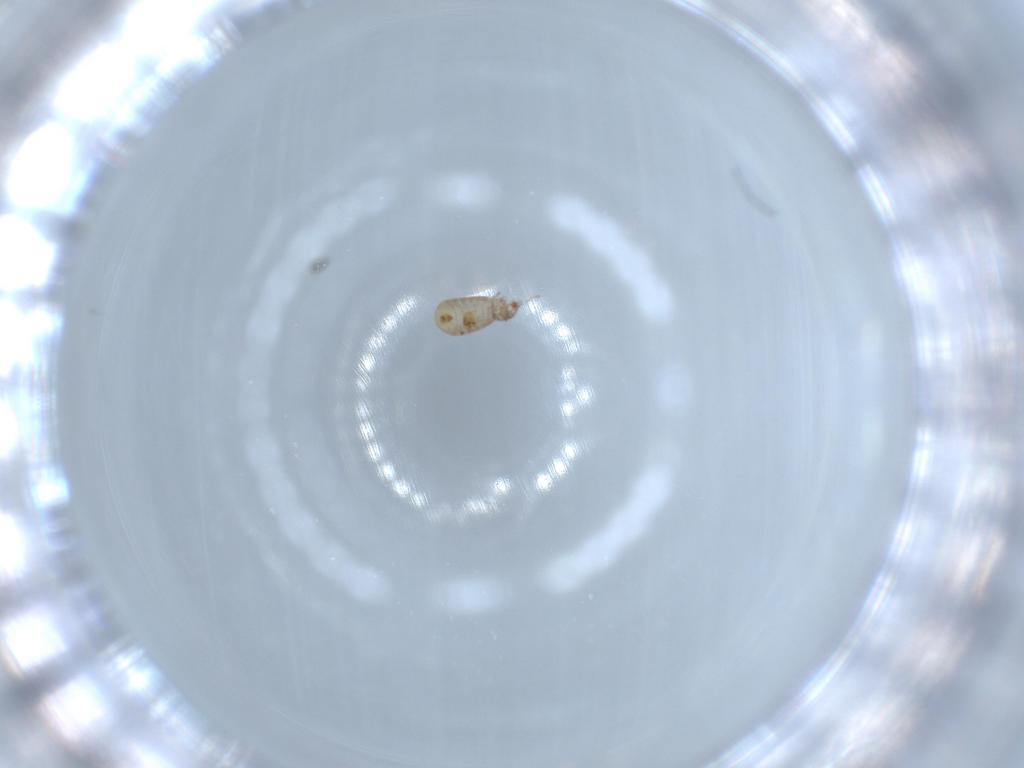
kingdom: Animalia
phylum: Arthropoda
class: Insecta
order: Psocodea
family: Liposcelididae
